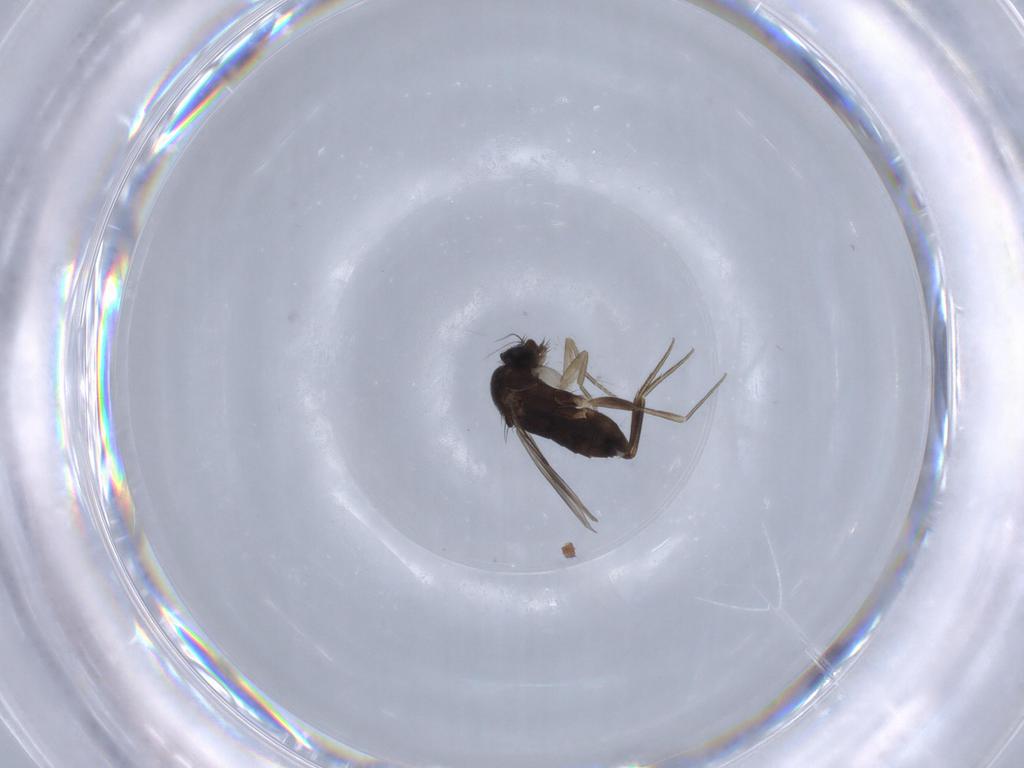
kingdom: Animalia
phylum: Arthropoda
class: Insecta
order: Diptera
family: Phoridae
